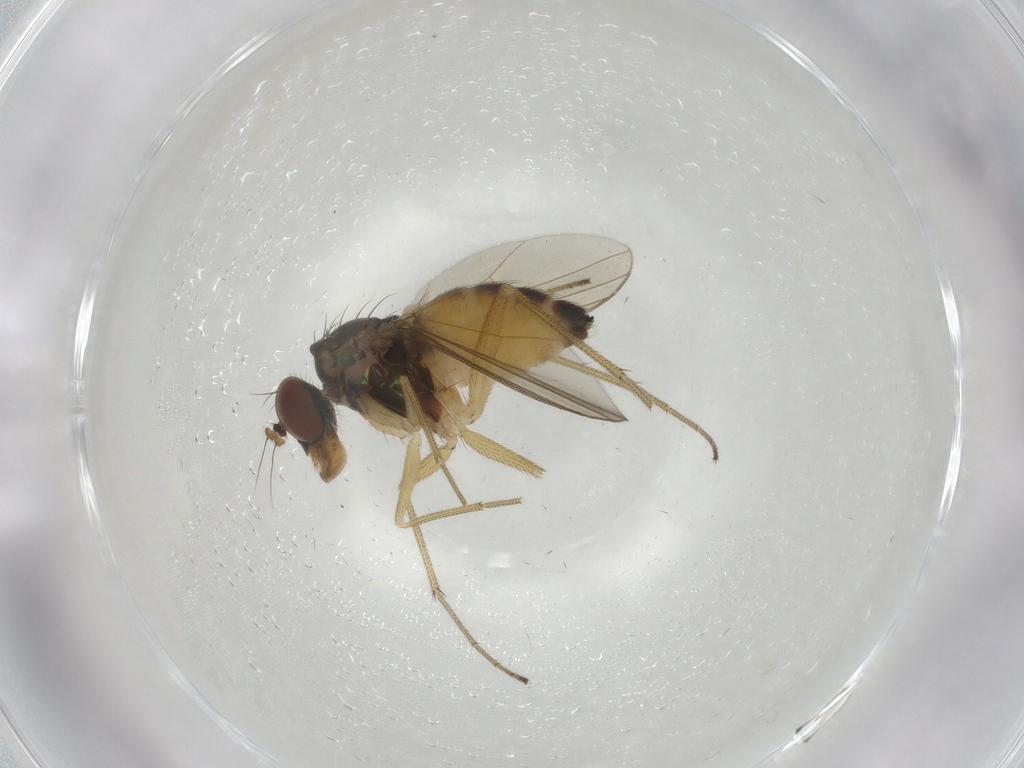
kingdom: Animalia
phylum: Arthropoda
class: Insecta
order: Diptera
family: Dolichopodidae
